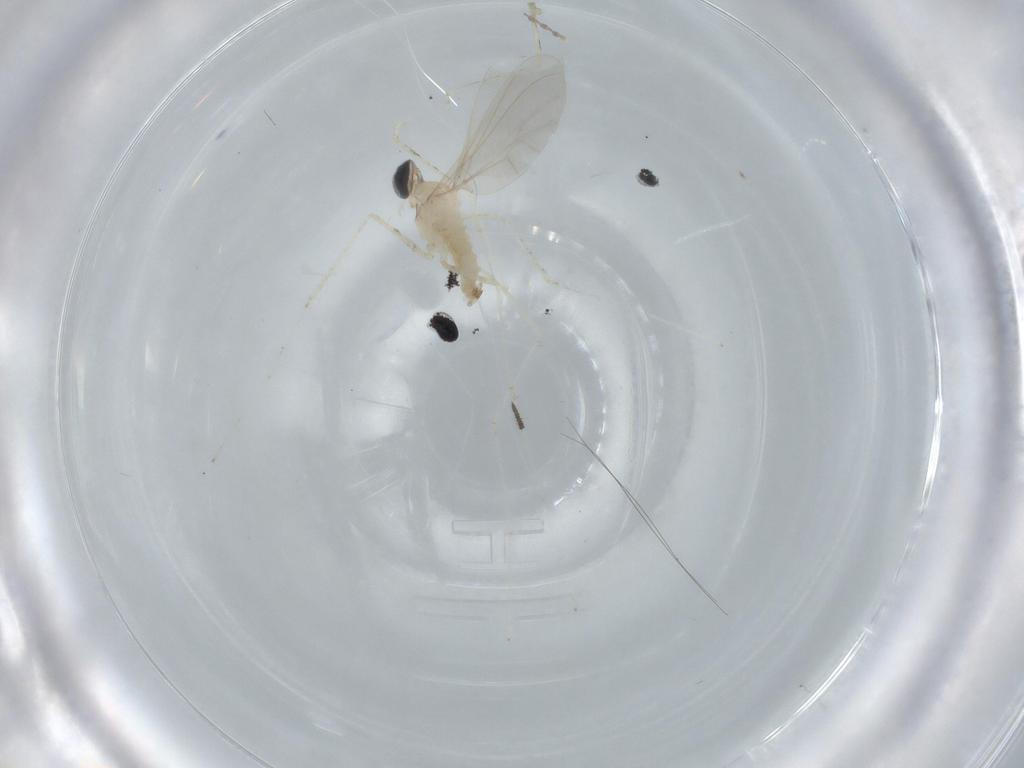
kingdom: Animalia
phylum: Arthropoda
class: Insecta
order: Diptera
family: Cecidomyiidae
